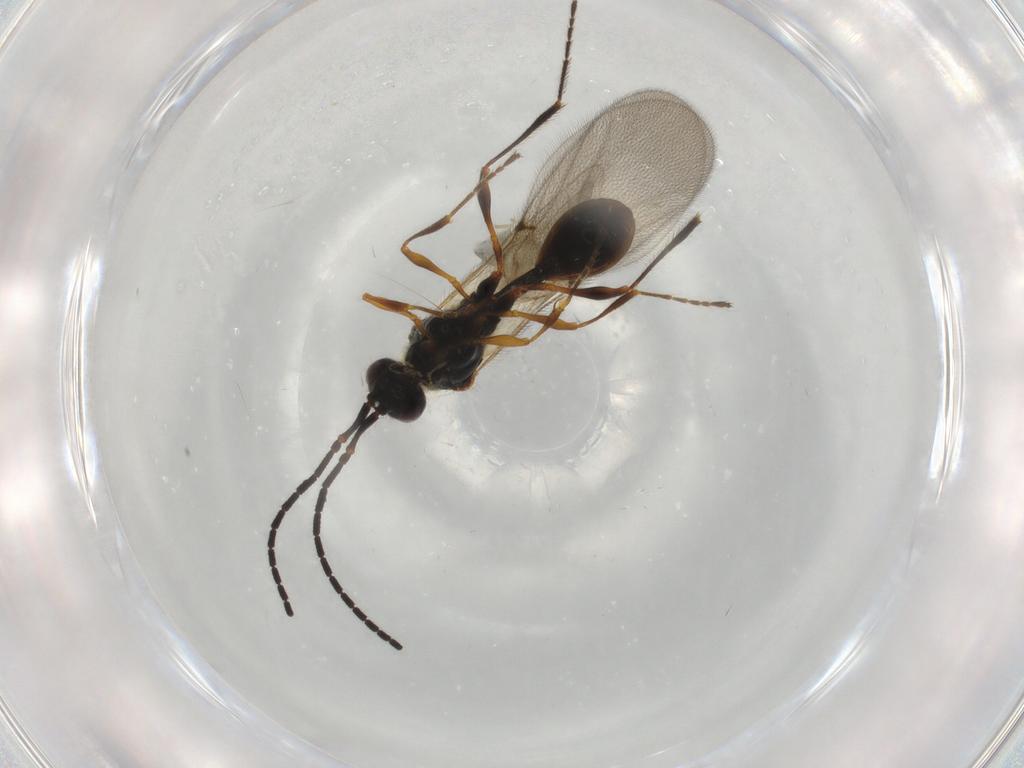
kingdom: Animalia
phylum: Arthropoda
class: Insecta
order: Hymenoptera
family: Diapriidae
